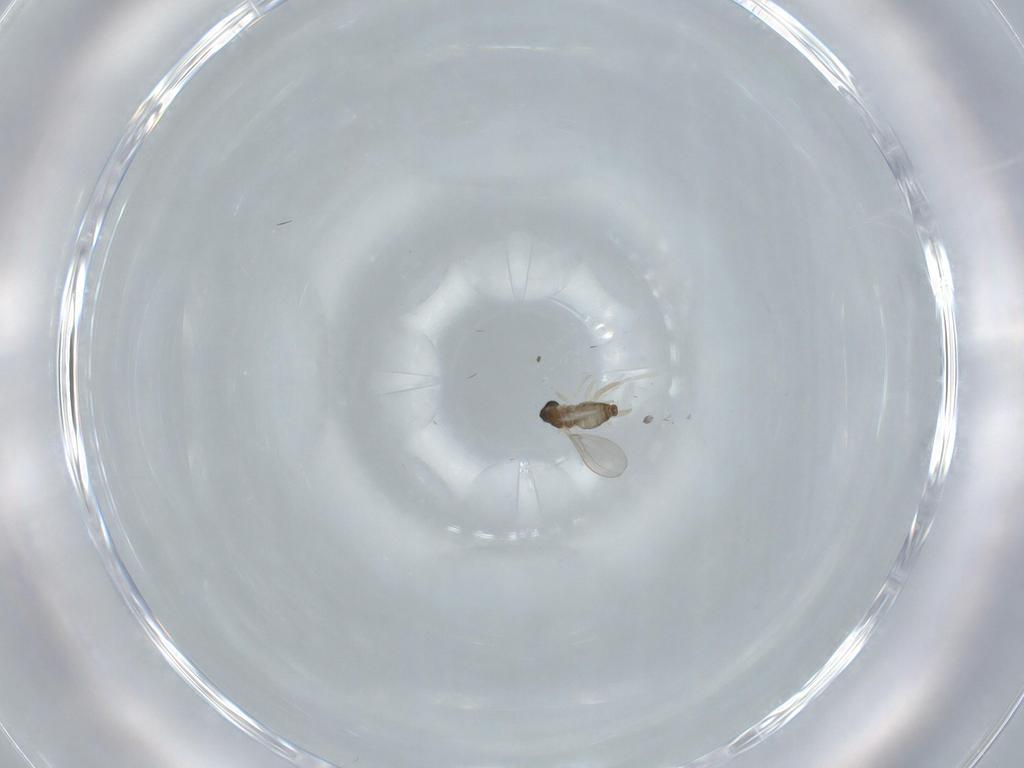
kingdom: Animalia
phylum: Arthropoda
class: Insecta
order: Diptera
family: Cecidomyiidae
